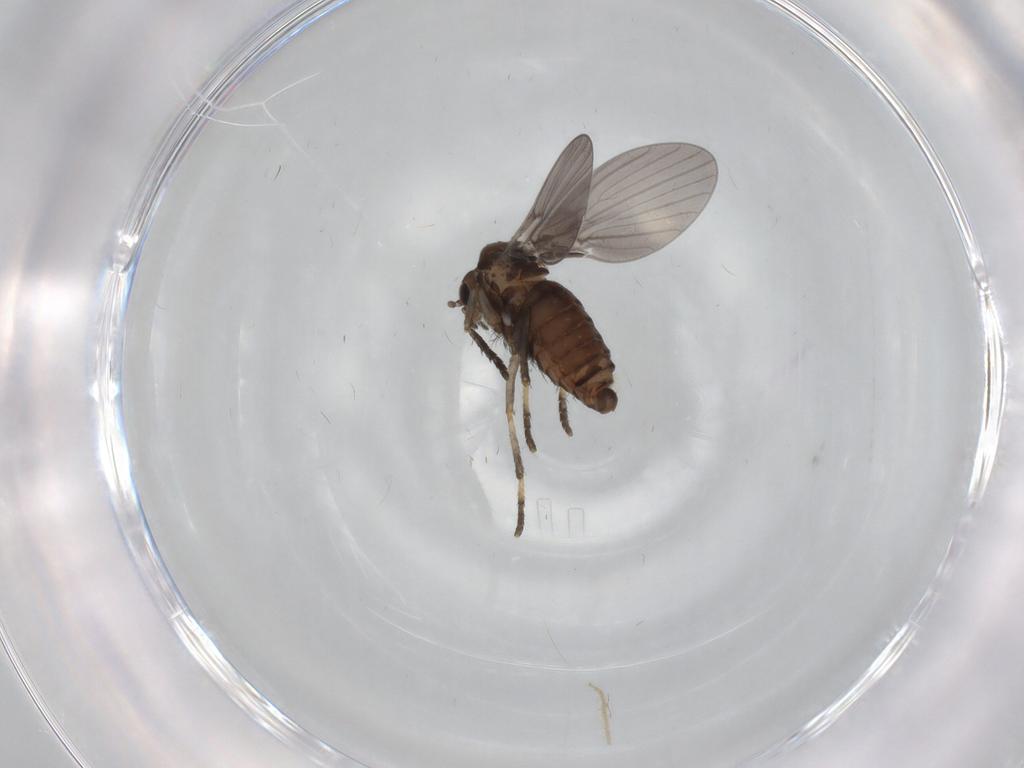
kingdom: Animalia
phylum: Arthropoda
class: Insecta
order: Diptera
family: Psychodidae
